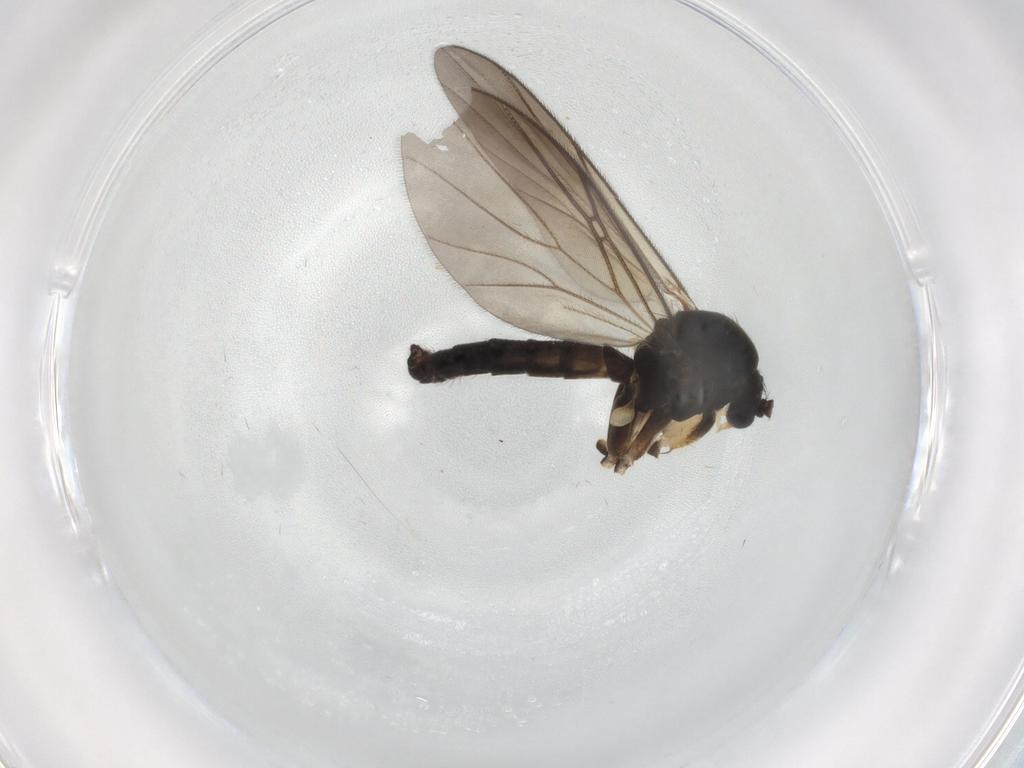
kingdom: Animalia
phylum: Arthropoda
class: Insecta
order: Diptera
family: Mycetophilidae
